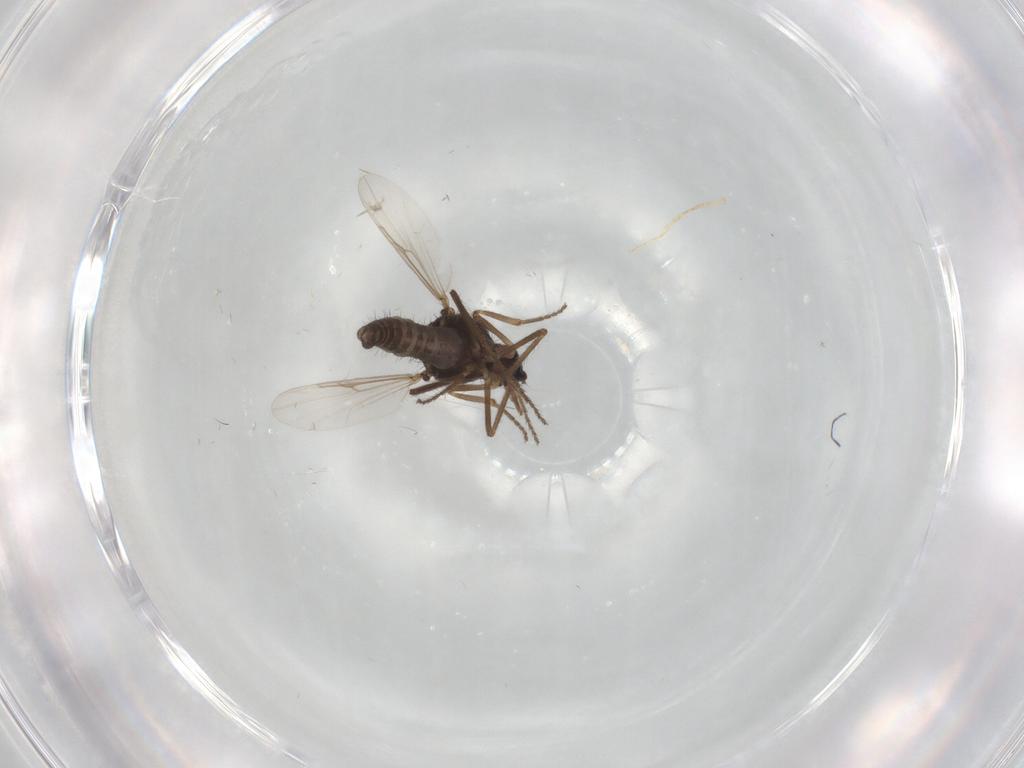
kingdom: Animalia
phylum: Arthropoda
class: Insecta
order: Diptera
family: Ceratopogonidae
